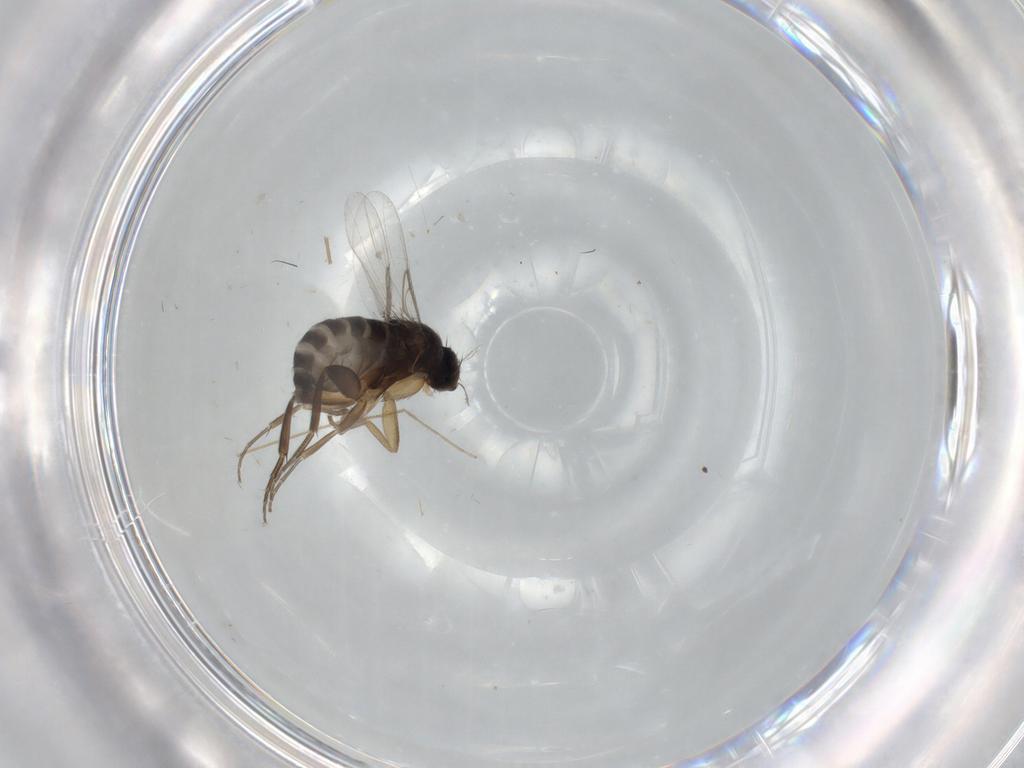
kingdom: Animalia
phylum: Arthropoda
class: Insecta
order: Diptera
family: Phoridae
